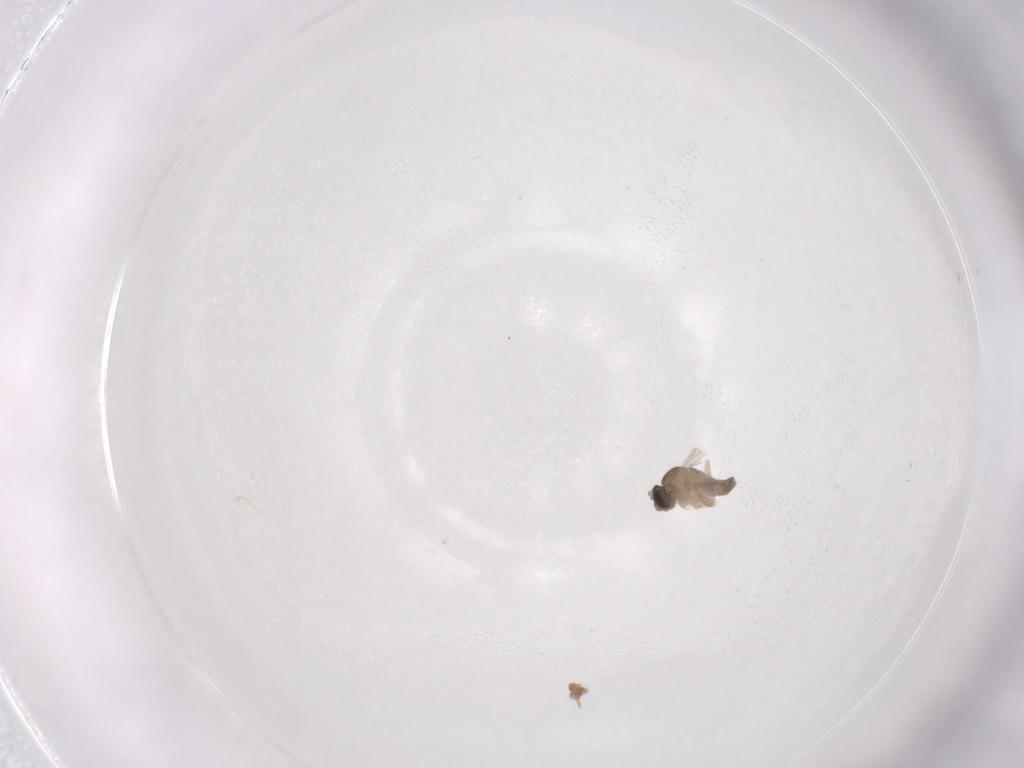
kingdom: Animalia
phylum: Arthropoda
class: Insecta
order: Diptera
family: Cecidomyiidae
